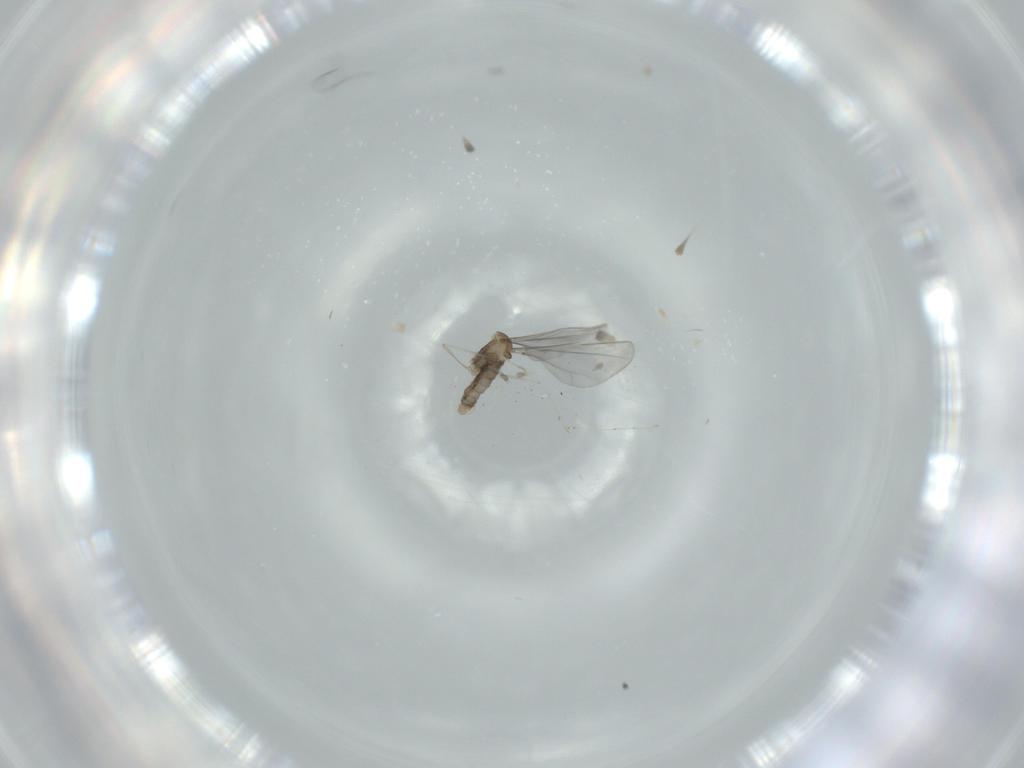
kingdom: Animalia
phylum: Arthropoda
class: Insecta
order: Diptera
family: Cecidomyiidae
